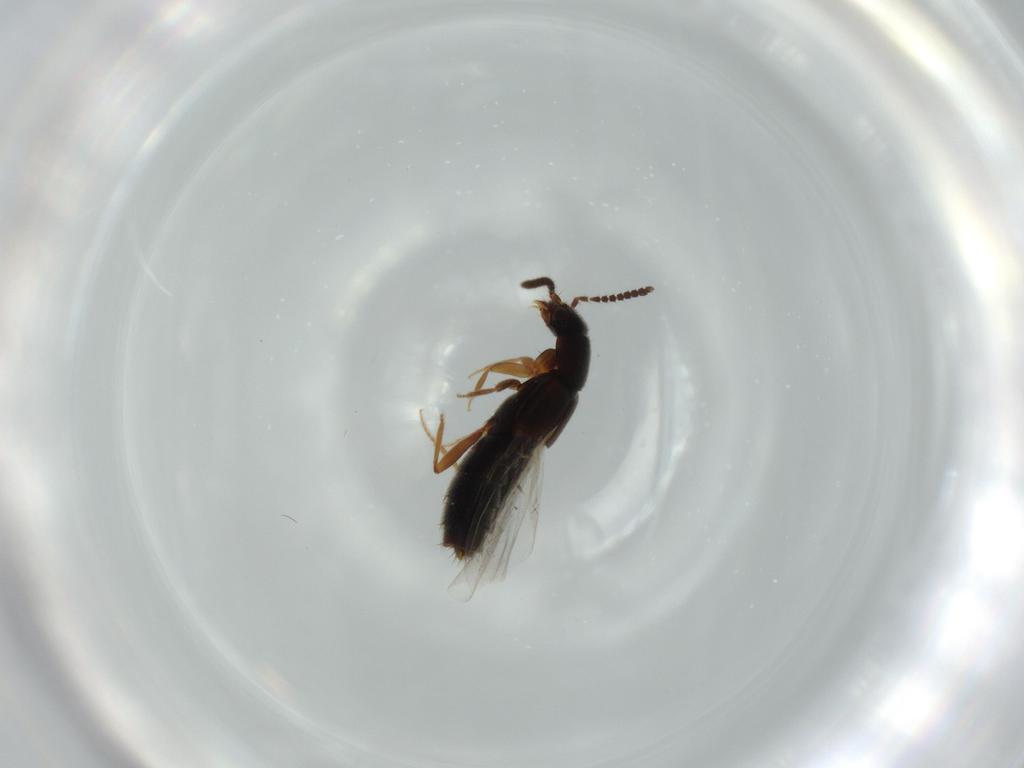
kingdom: Animalia
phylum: Arthropoda
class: Insecta
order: Coleoptera
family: Chrysomelidae
